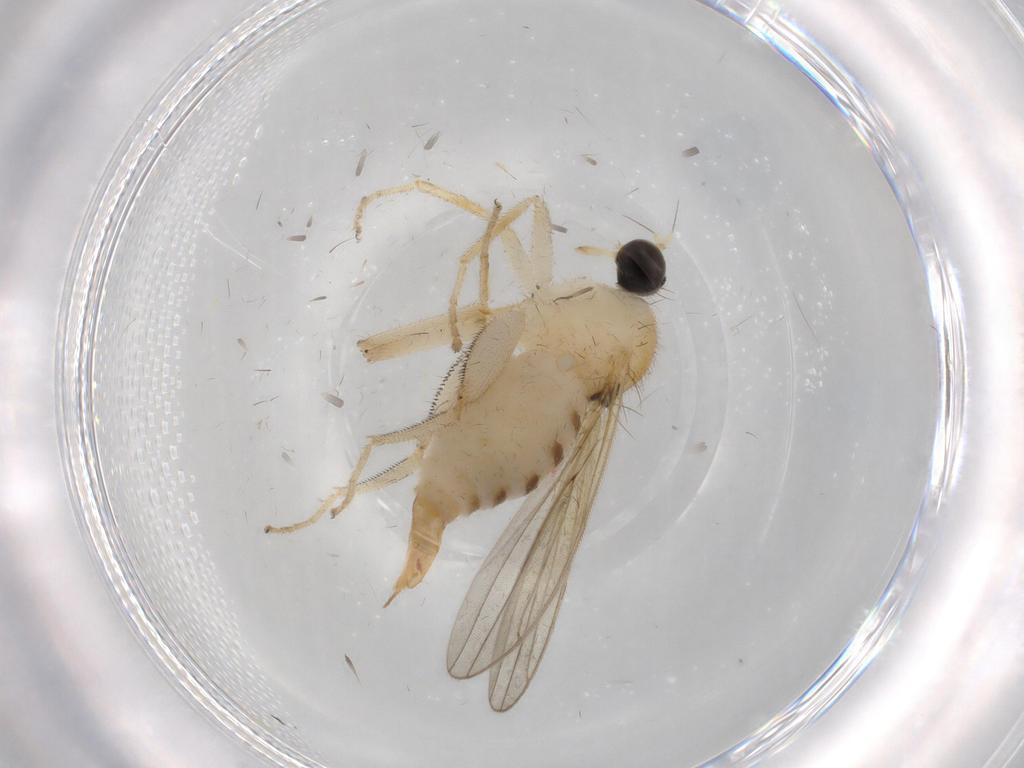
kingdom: Animalia
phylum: Arthropoda
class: Insecta
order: Diptera
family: Hybotidae
